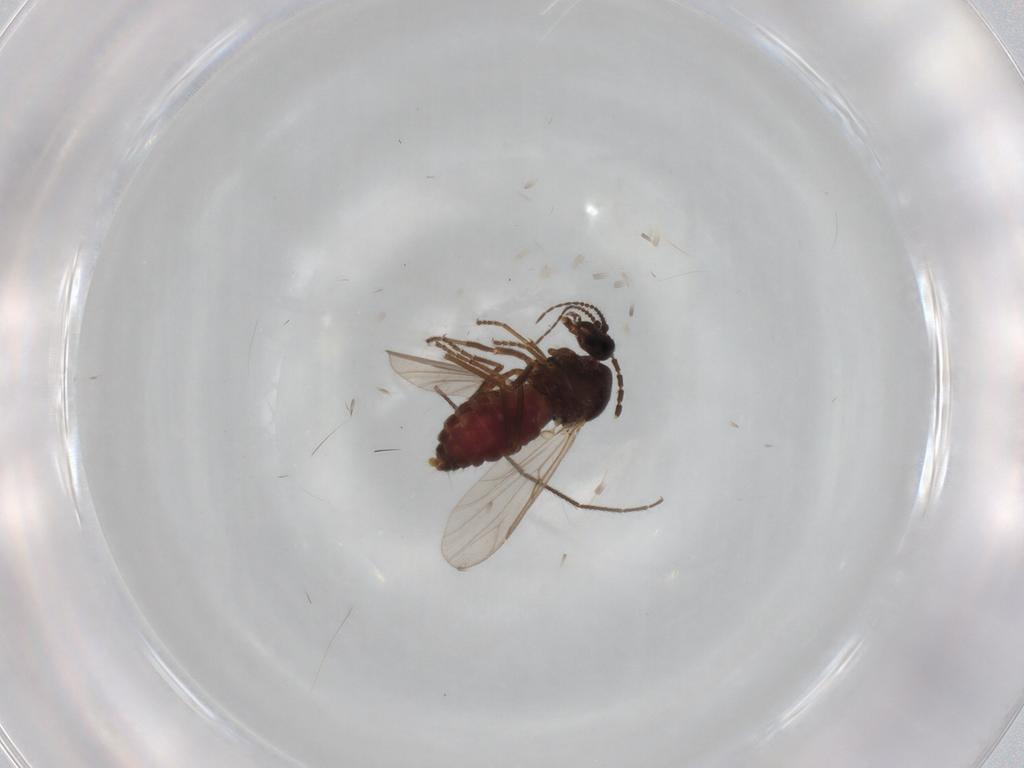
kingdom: Animalia
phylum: Arthropoda
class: Insecta
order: Diptera
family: Ceratopogonidae
